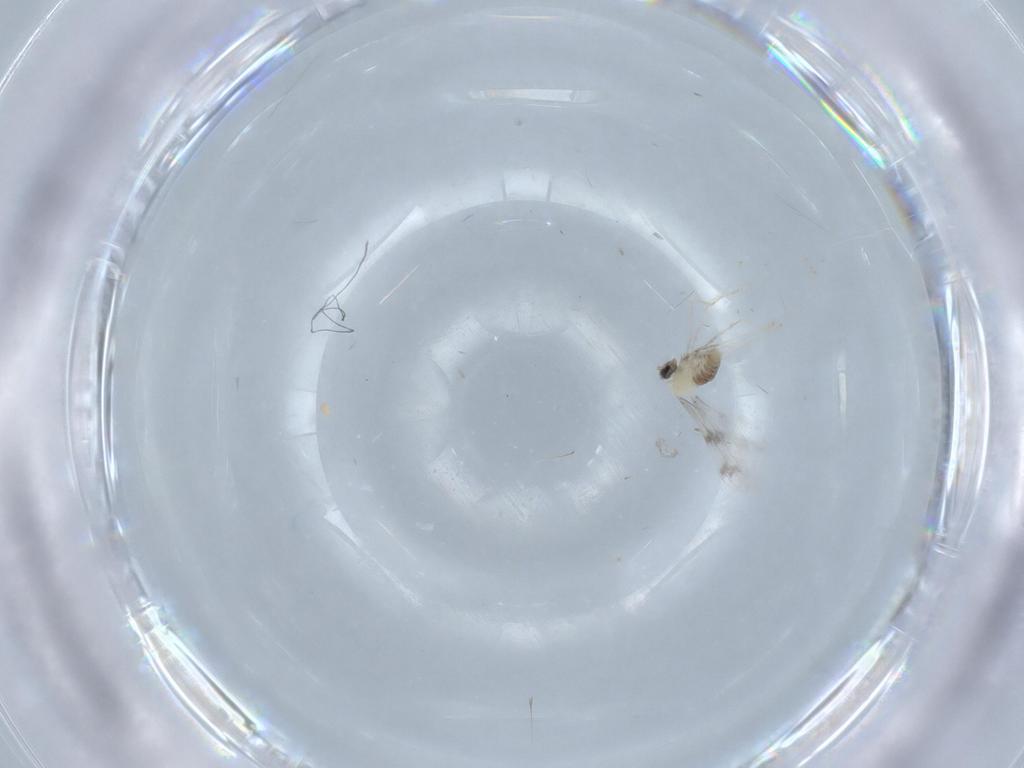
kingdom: Animalia
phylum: Arthropoda
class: Insecta
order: Diptera
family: Cecidomyiidae
